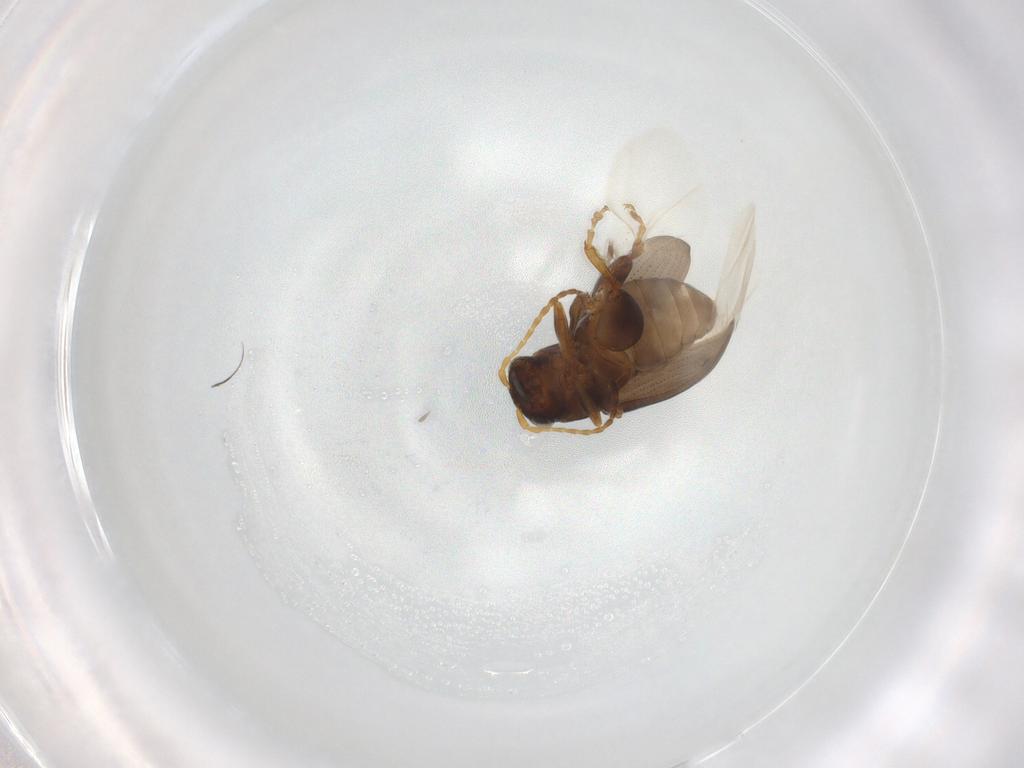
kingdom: Animalia
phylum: Arthropoda
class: Insecta
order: Coleoptera
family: Chrysomelidae
